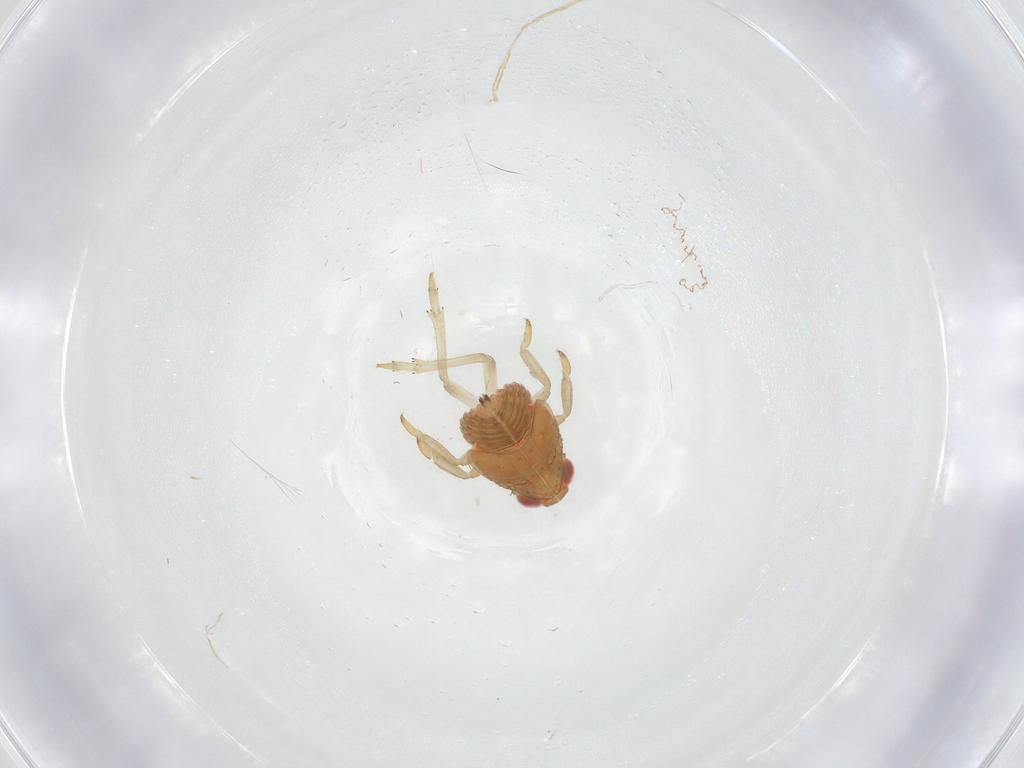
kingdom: Animalia
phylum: Arthropoda
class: Insecta
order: Hemiptera
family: Fulgoroidea_incertae_sedis
